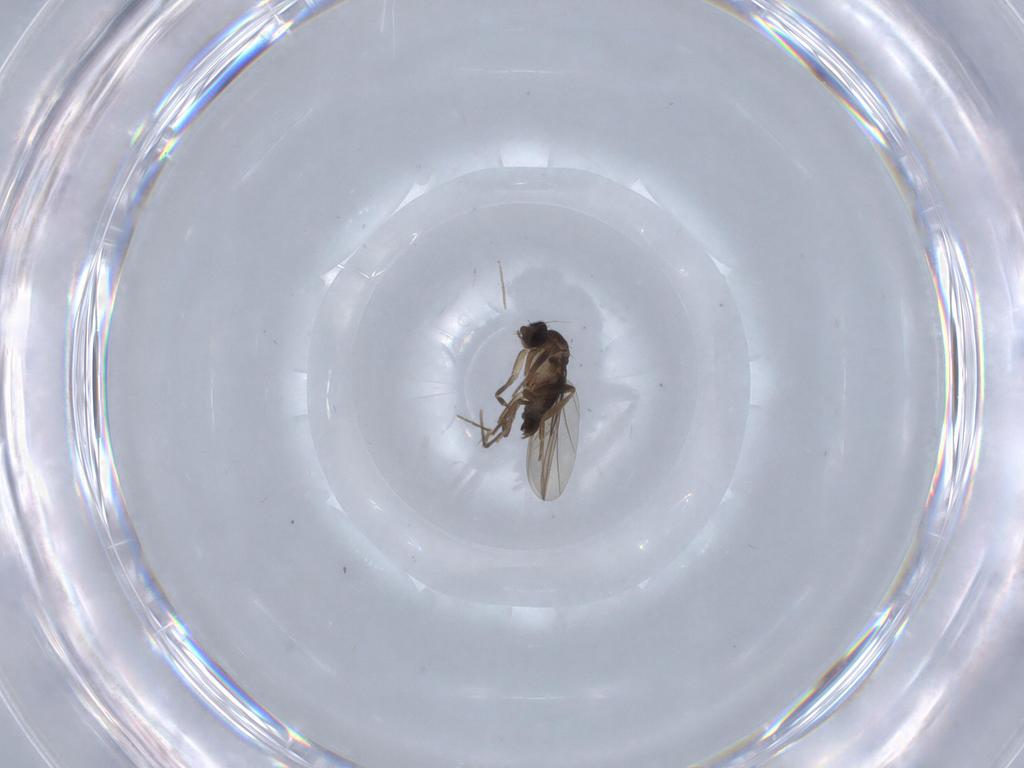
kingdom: Animalia
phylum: Arthropoda
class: Insecta
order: Diptera
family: Phoridae
